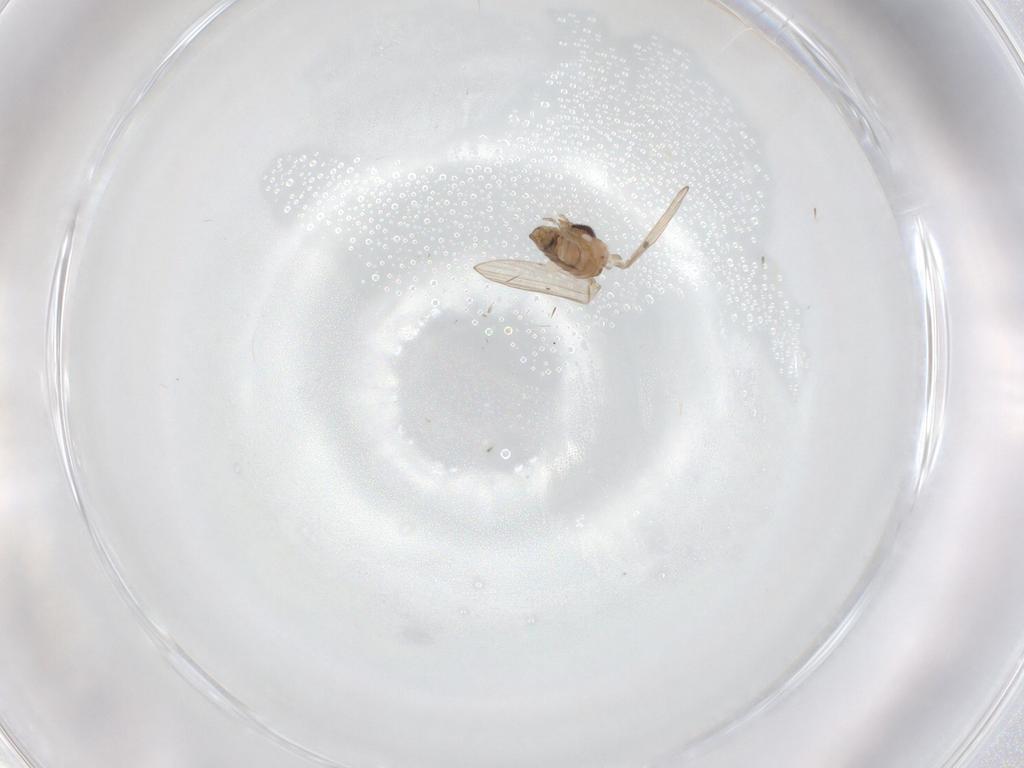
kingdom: Animalia
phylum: Arthropoda
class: Insecta
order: Diptera
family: Psychodidae
